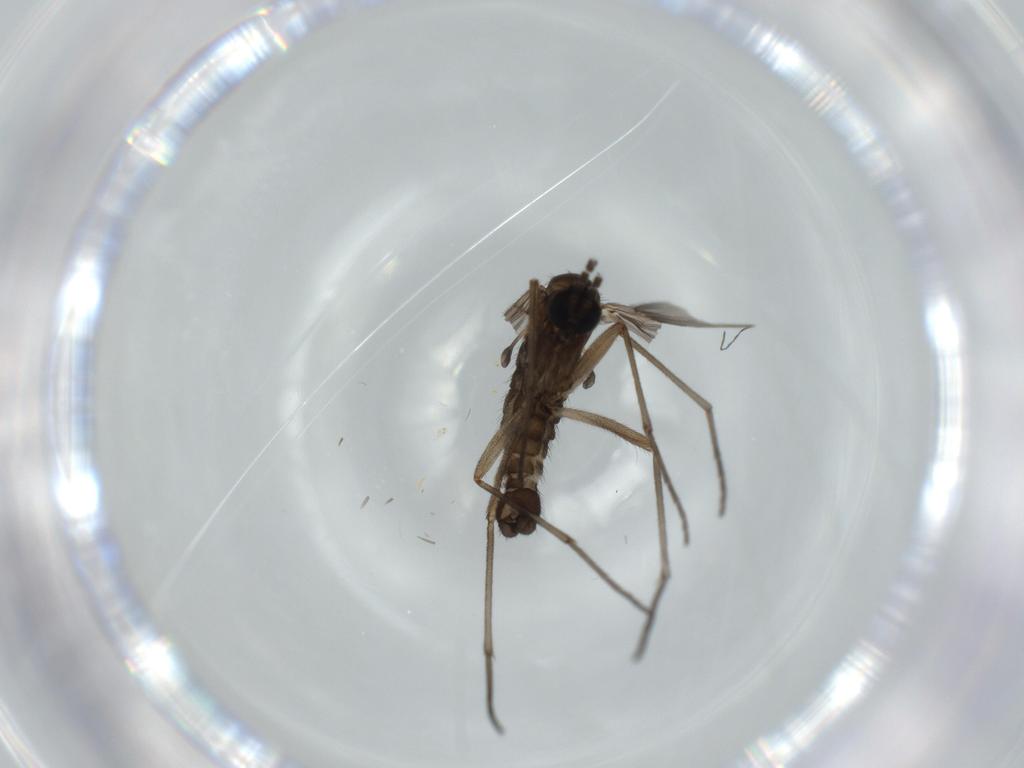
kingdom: Animalia
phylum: Arthropoda
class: Insecta
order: Diptera
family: Sciaridae
